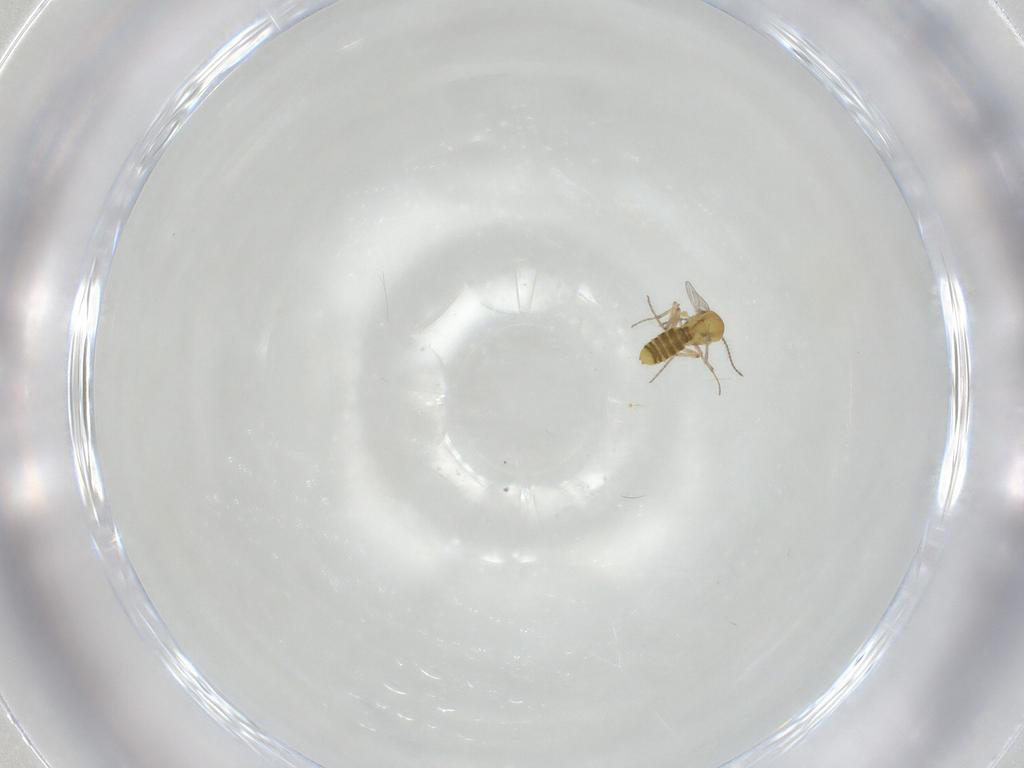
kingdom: Animalia
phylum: Arthropoda
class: Insecta
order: Diptera
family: Ceratopogonidae
